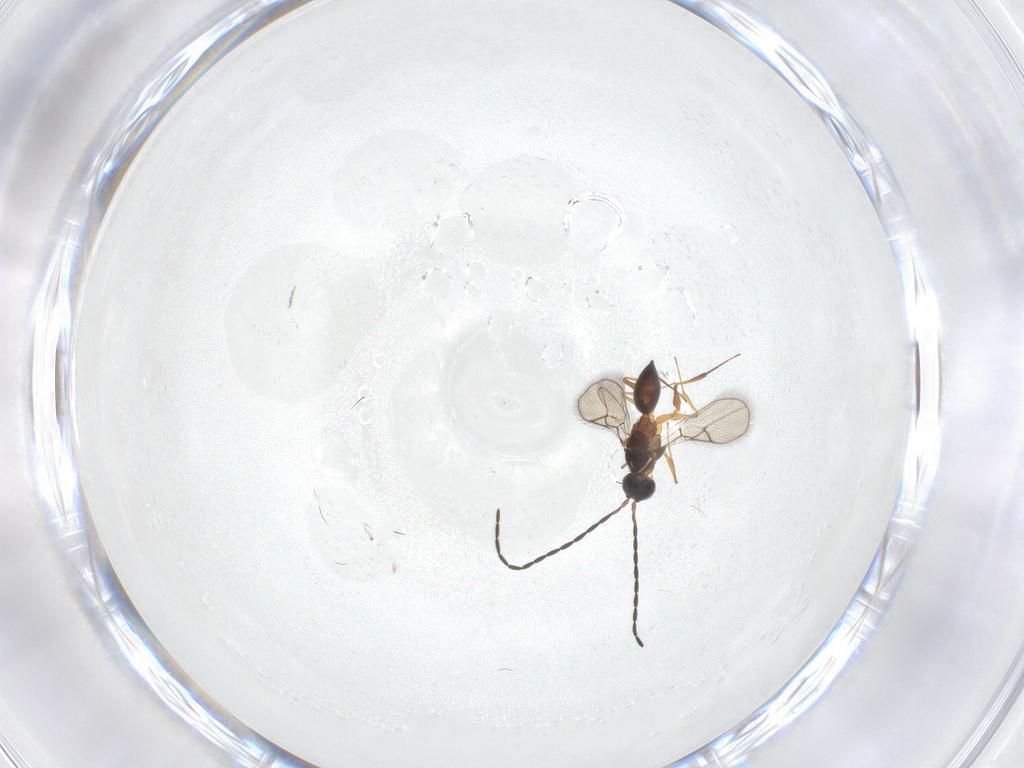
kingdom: Animalia
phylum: Arthropoda
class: Insecta
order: Hymenoptera
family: Figitidae
